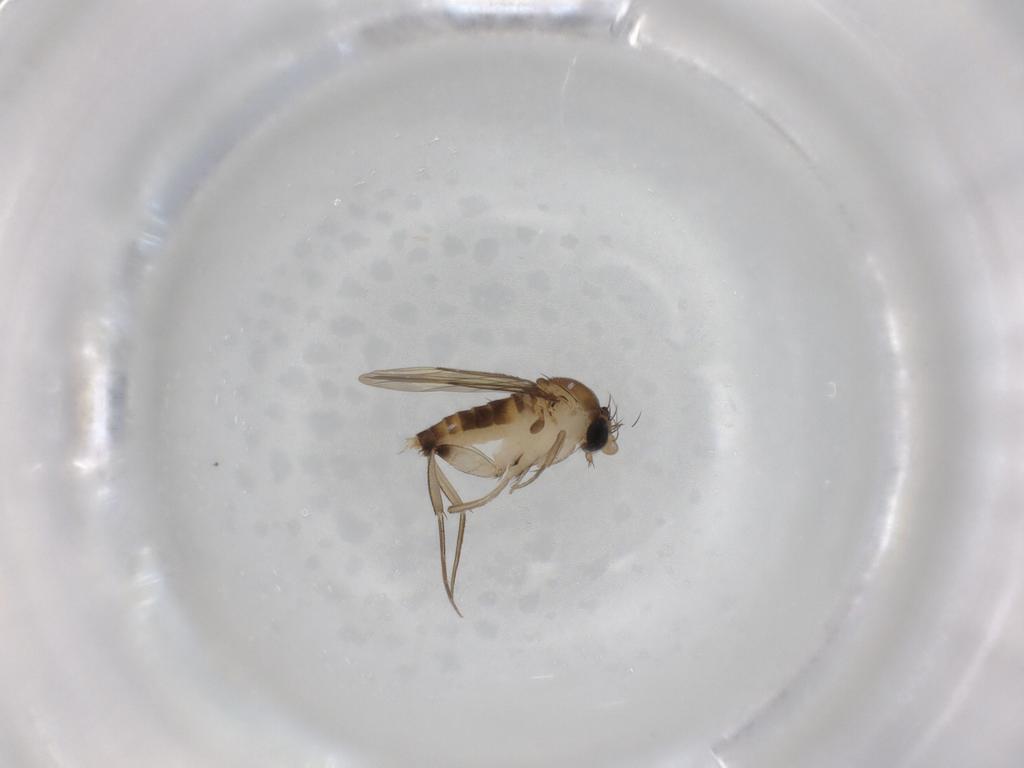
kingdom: Animalia
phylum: Arthropoda
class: Insecta
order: Diptera
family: Phoridae
